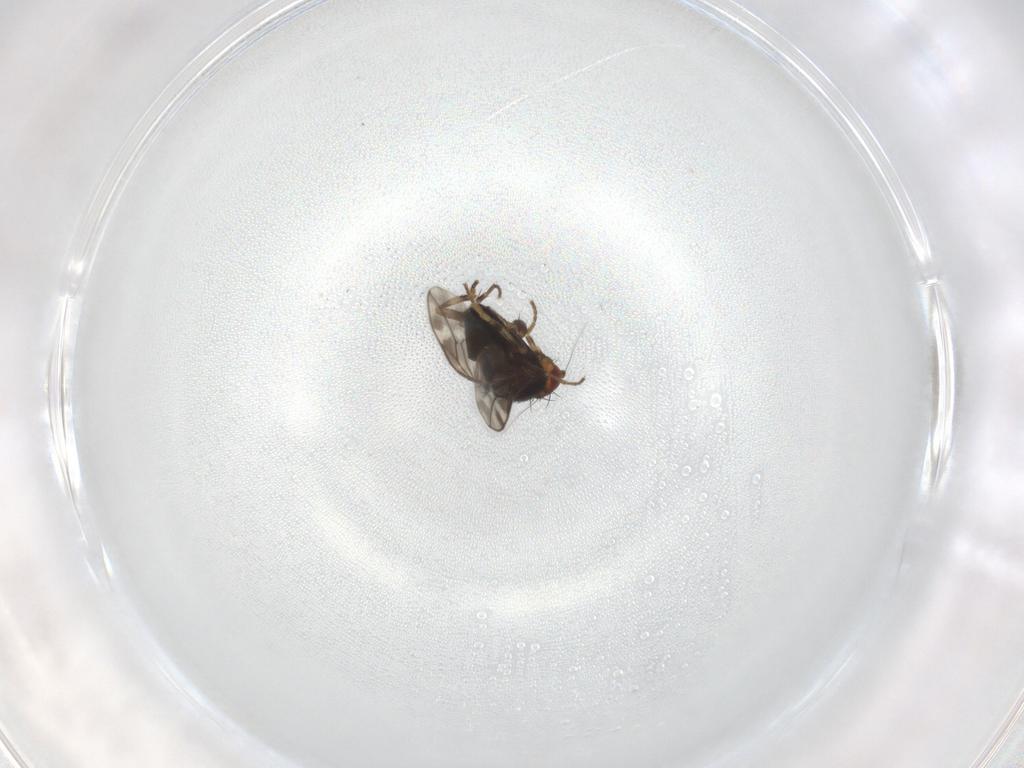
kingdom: Animalia
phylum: Arthropoda
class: Insecta
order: Diptera
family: Sphaeroceridae
